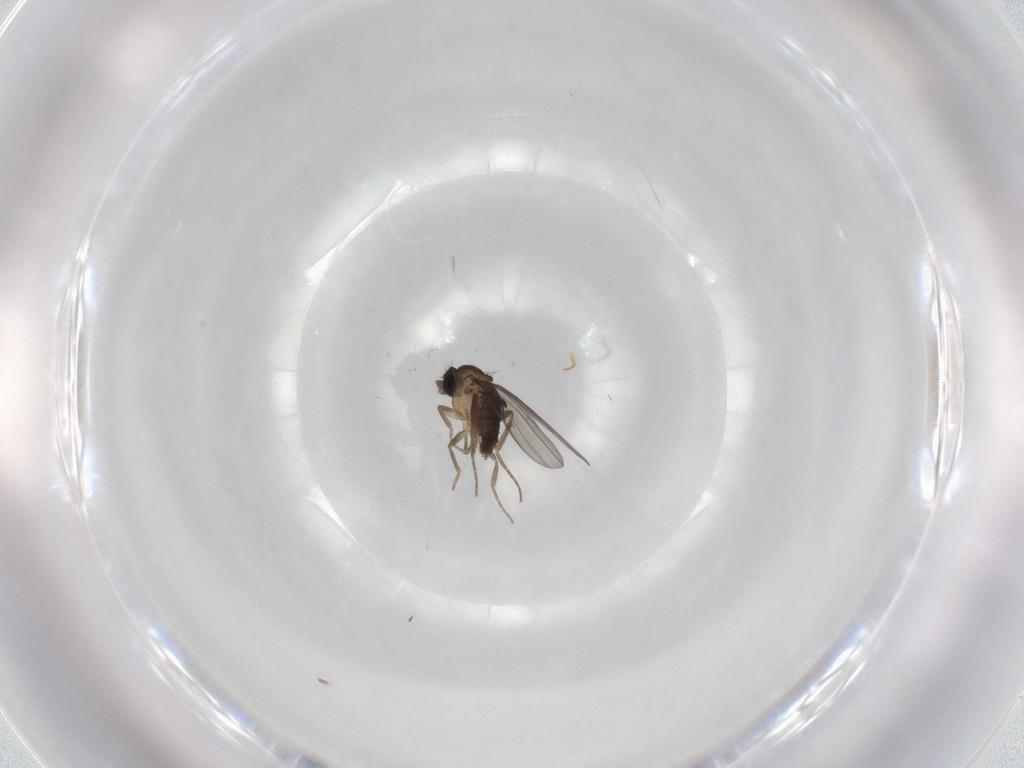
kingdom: Animalia
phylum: Arthropoda
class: Insecta
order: Diptera
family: Phoridae
